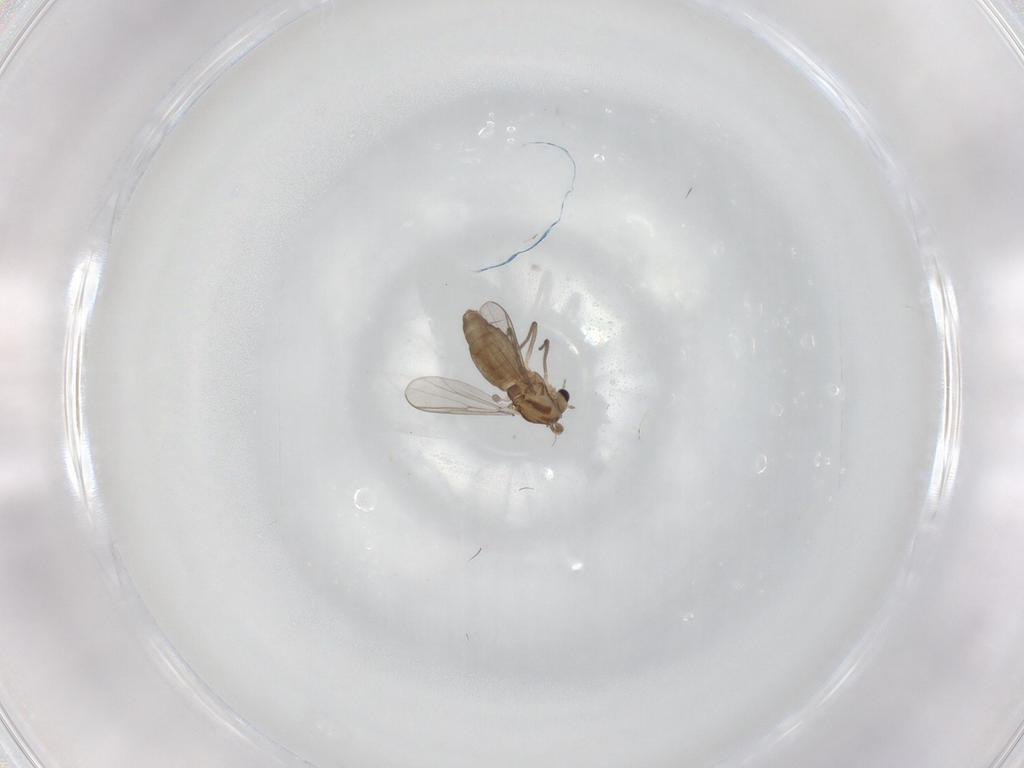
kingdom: Animalia
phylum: Arthropoda
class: Insecta
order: Diptera
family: Chironomidae
